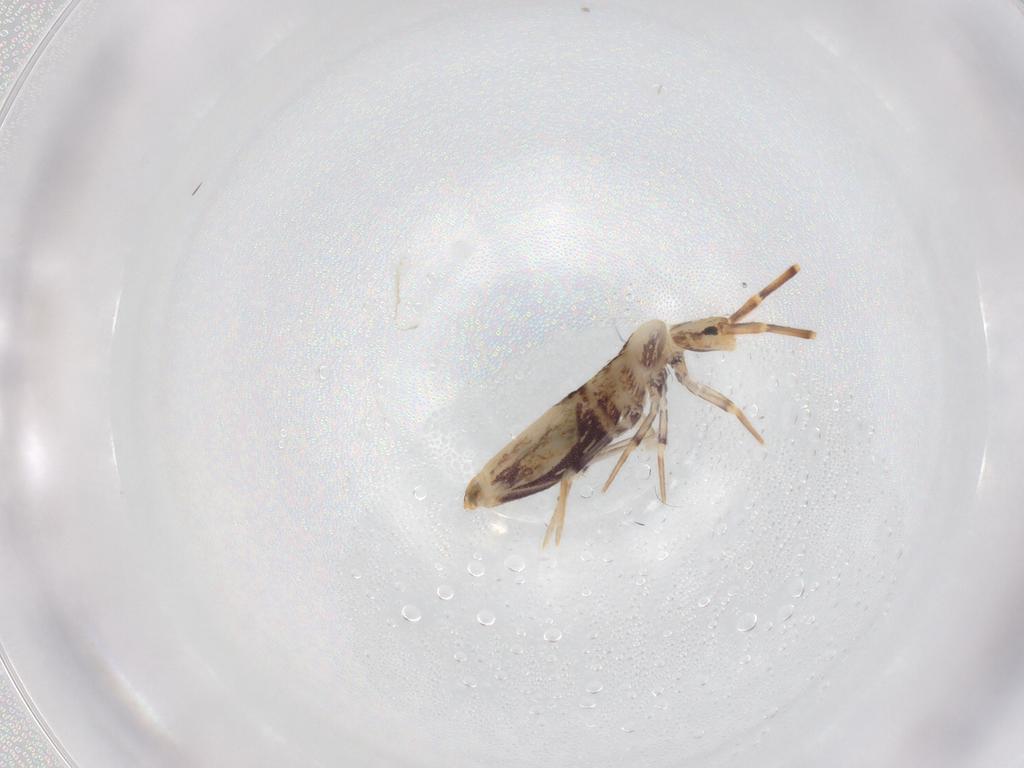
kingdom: Animalia
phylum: Arthropoda
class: Collembola
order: Poduromorpha
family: Hypogastruridae
